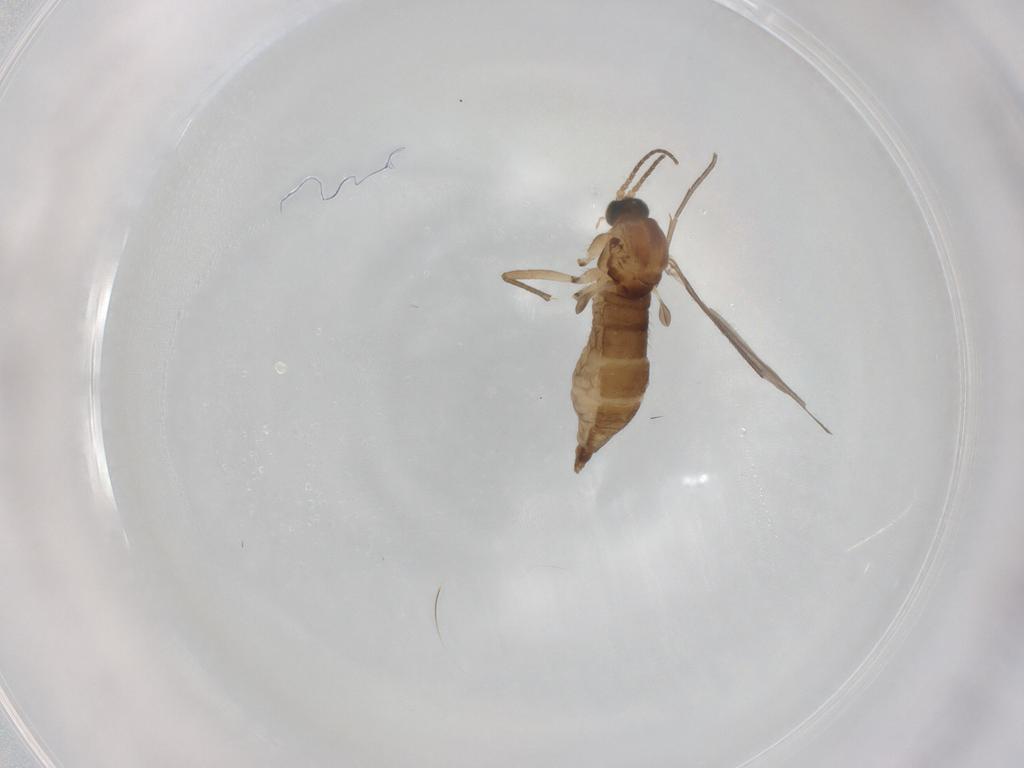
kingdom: Animalia
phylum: Arthropoda
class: Insecta
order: Diptera
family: Sciaridae
